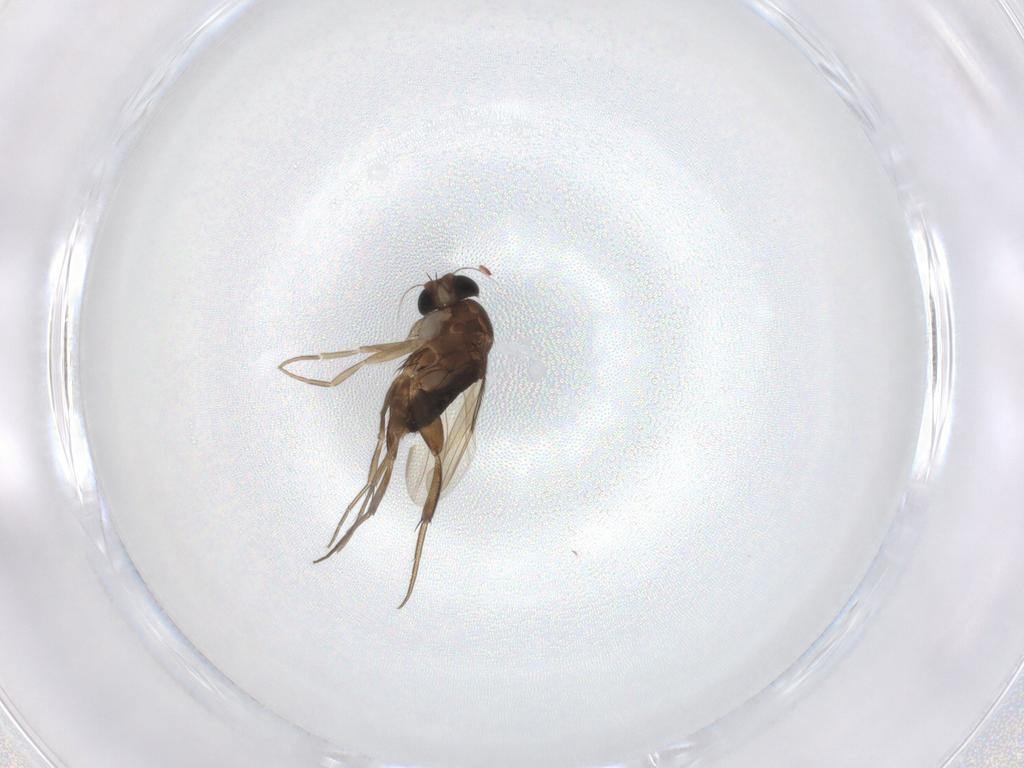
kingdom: Animalia
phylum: Arthropoda
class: Insecta
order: Diptera
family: Phoridae
